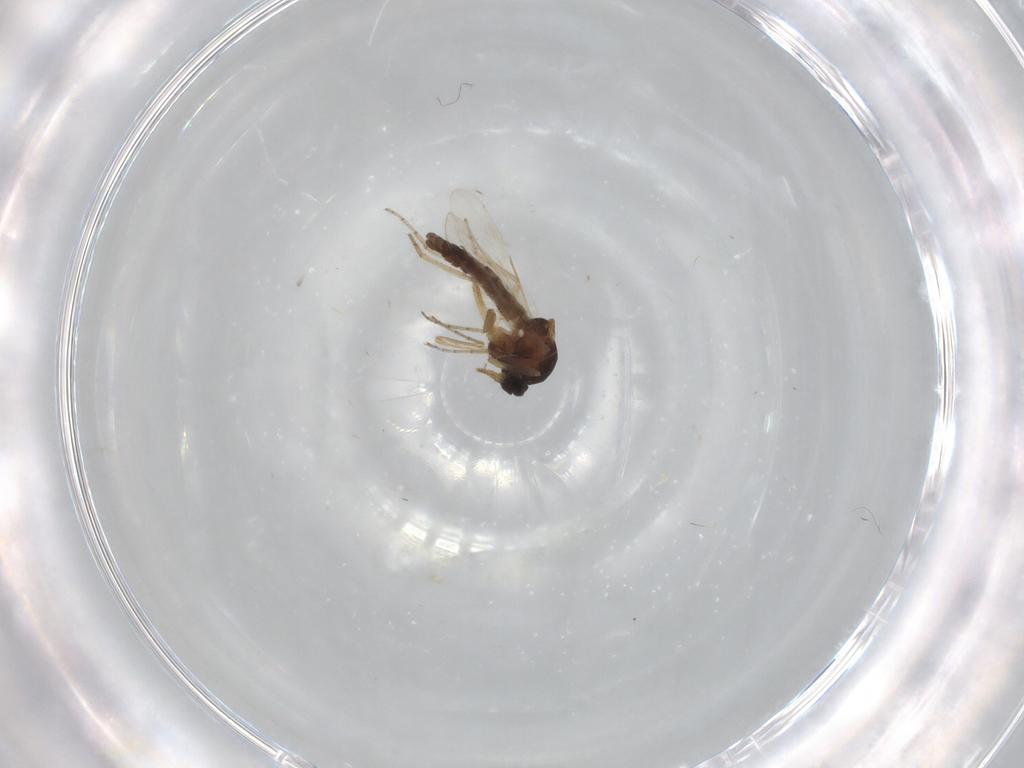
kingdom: Animalia
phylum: Arthropoda
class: Insecta
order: Diptera
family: Chironomidae
